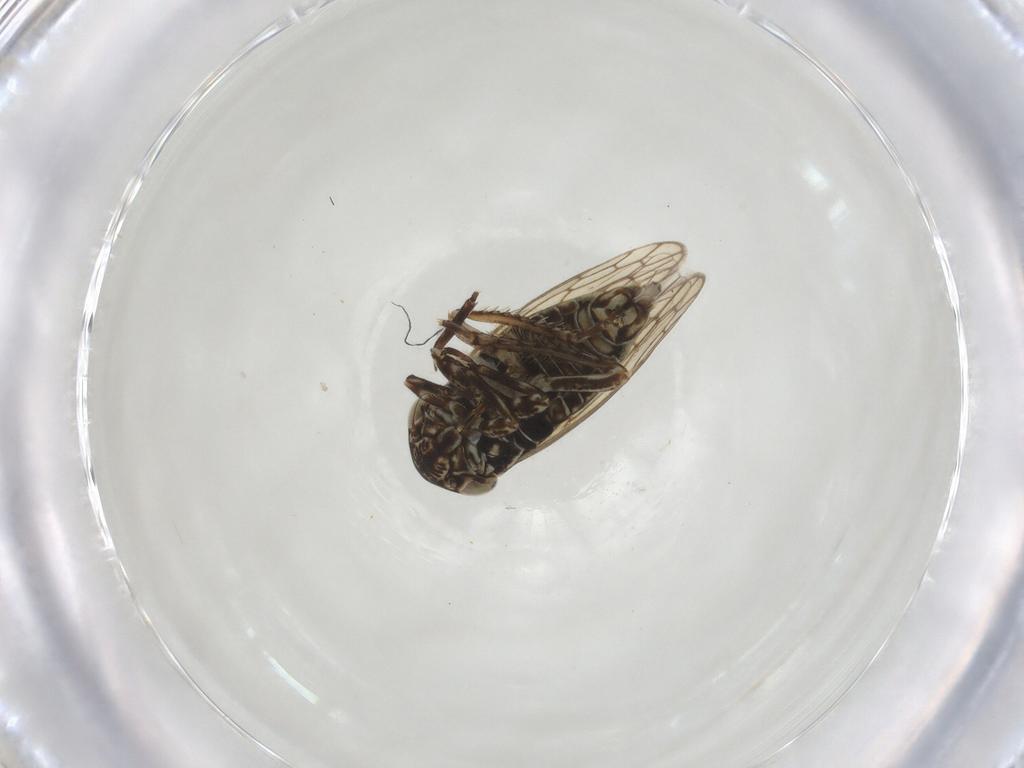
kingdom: Animalia
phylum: Arthropoda
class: Insecta
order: Hemiptera
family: Cicadellidae
